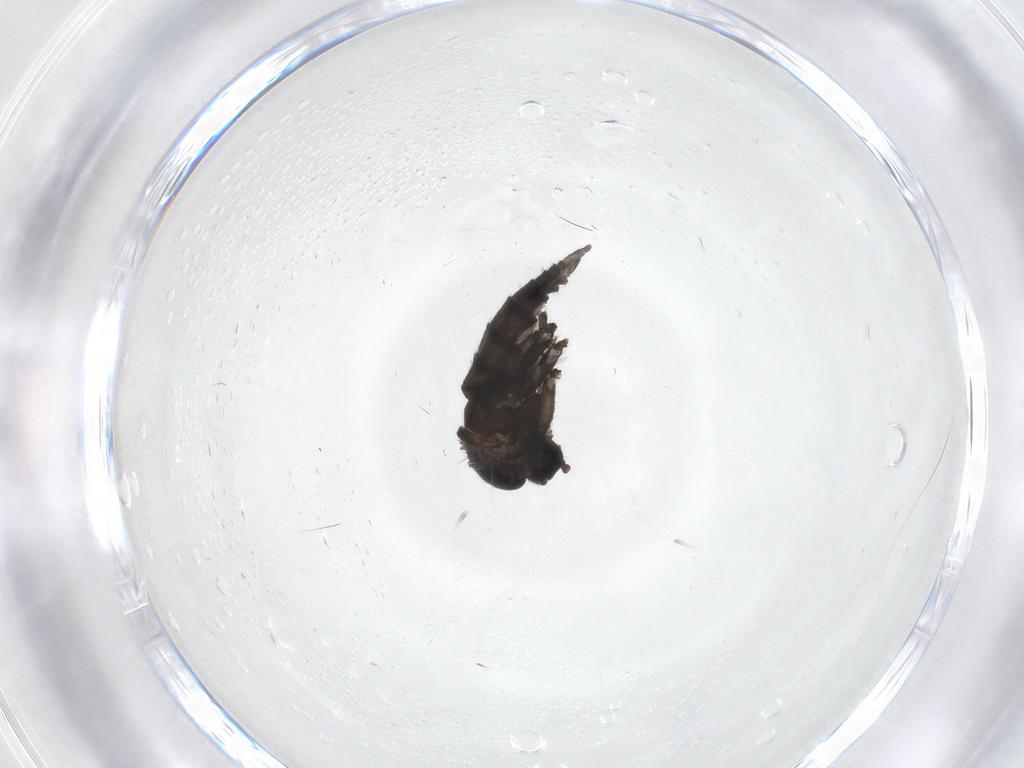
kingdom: Animalia
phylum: Arthropoda
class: Insecta
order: Diptera
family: Sciaridae
